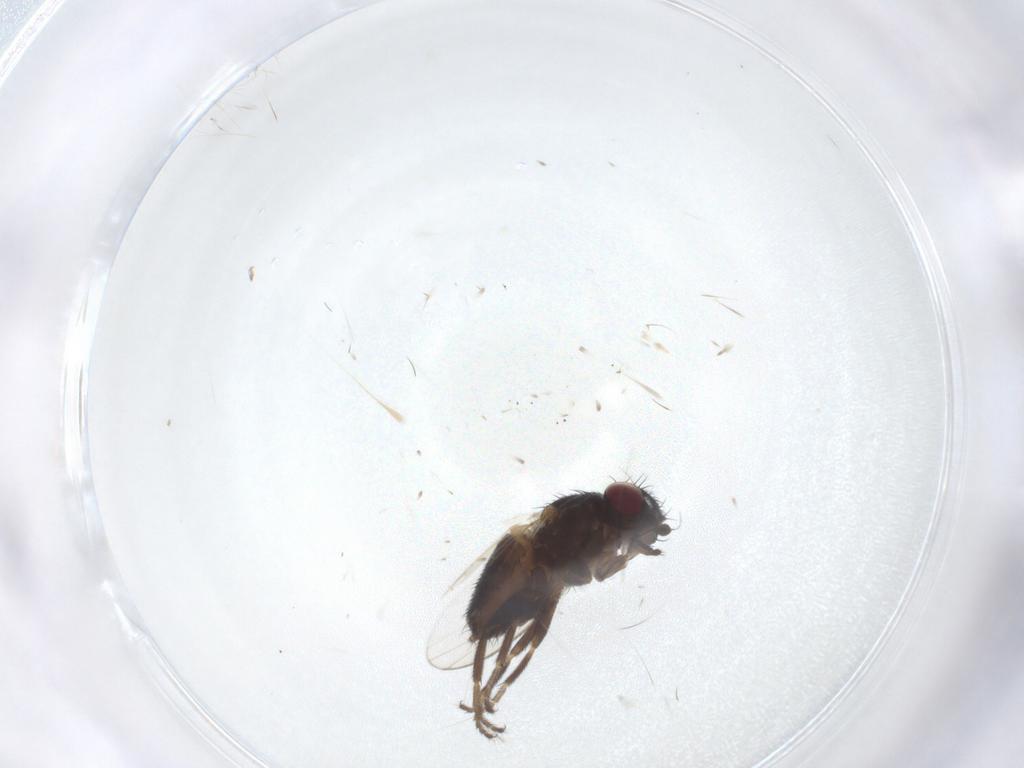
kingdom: Animalia
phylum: Arthropoda
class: Insecta
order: Diptera
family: Milichiidae
